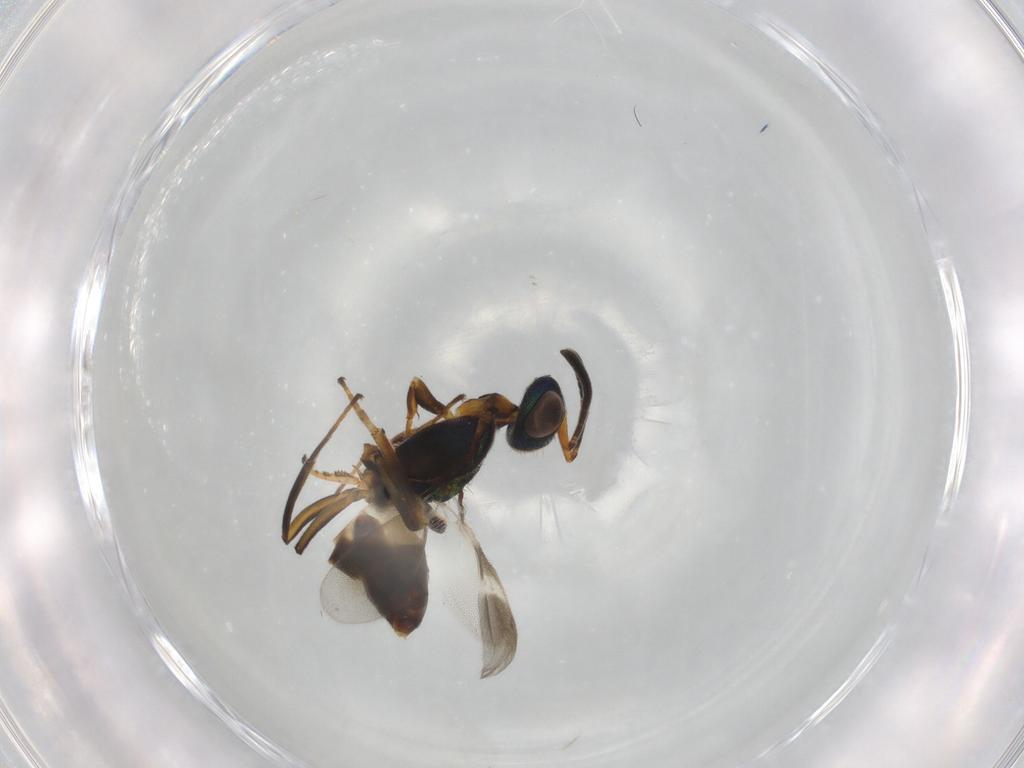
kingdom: Animalia
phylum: Arthropoda
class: Insecta
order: Hymenoptera
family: Eupelmidae
